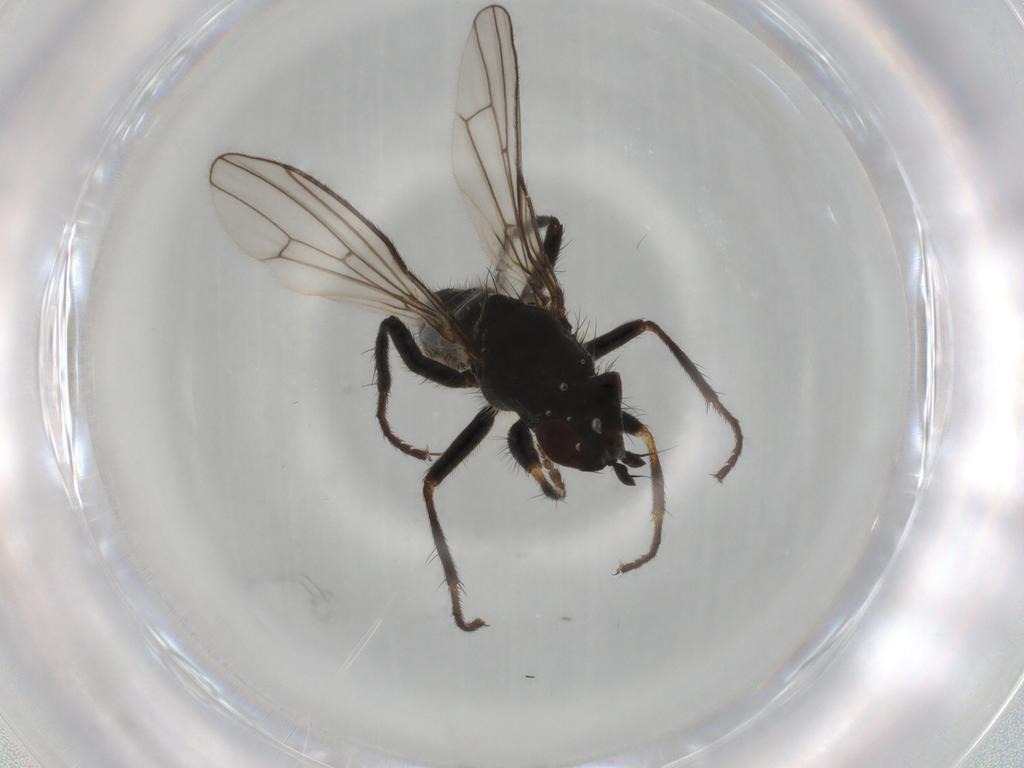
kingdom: Animalia
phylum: Arthropoda
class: Insecta
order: Diptera
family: Scathophagidae
